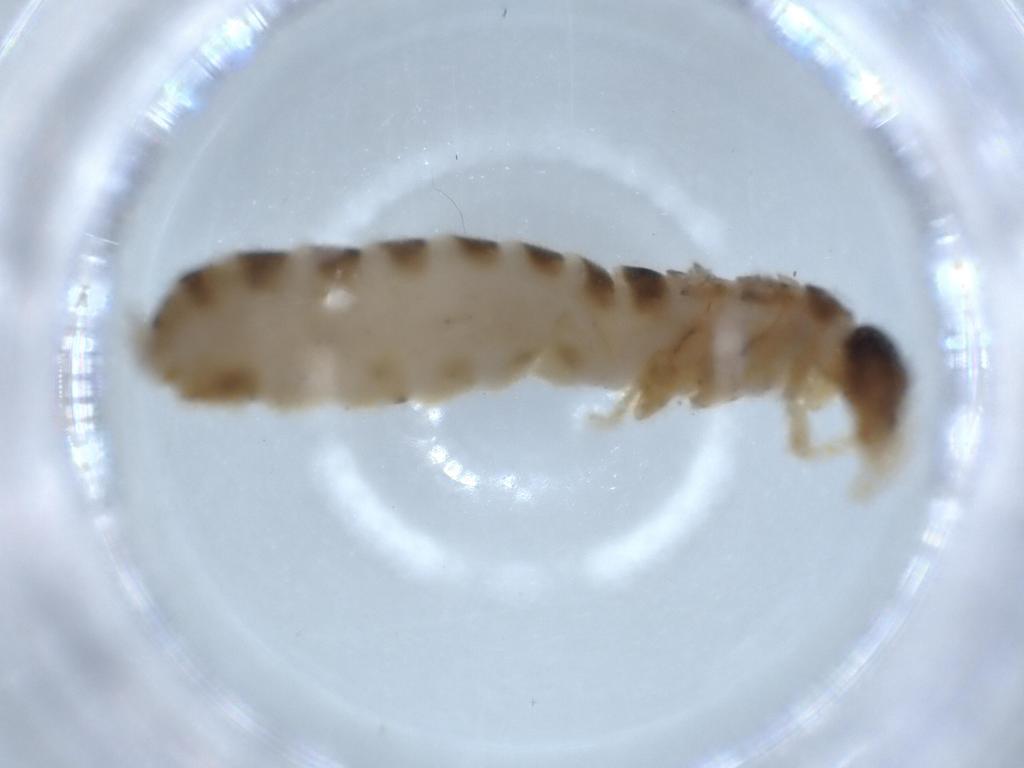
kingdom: Animalia
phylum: Arthropoda
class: Insecta
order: Blattodea
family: Termitidae
